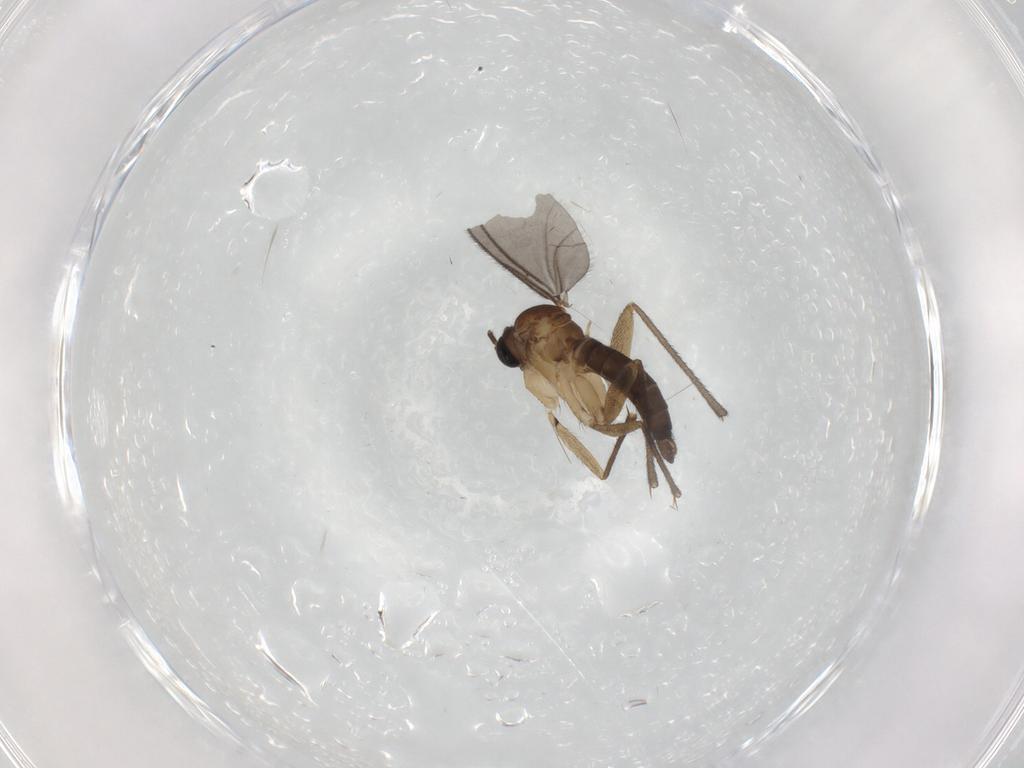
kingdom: Animalia
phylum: Arthropoda
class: Insecta
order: Diptera
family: Sciaridae
